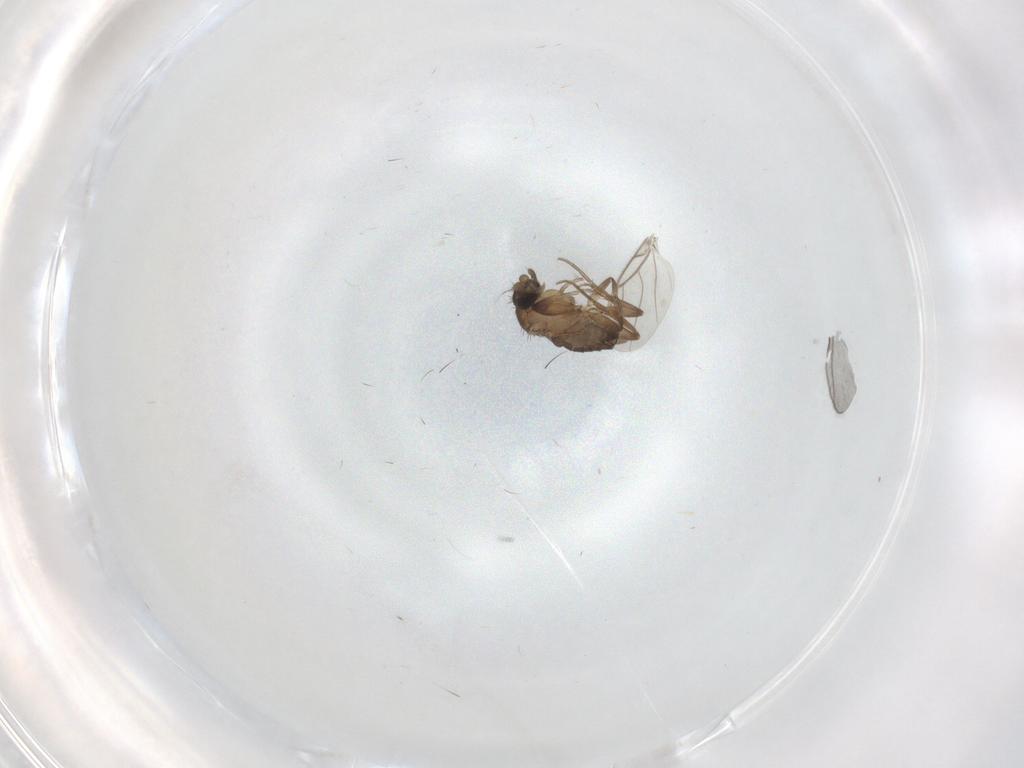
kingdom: Animalia
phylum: Arthropoda
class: Insecta
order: Diptera
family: Phoridae
